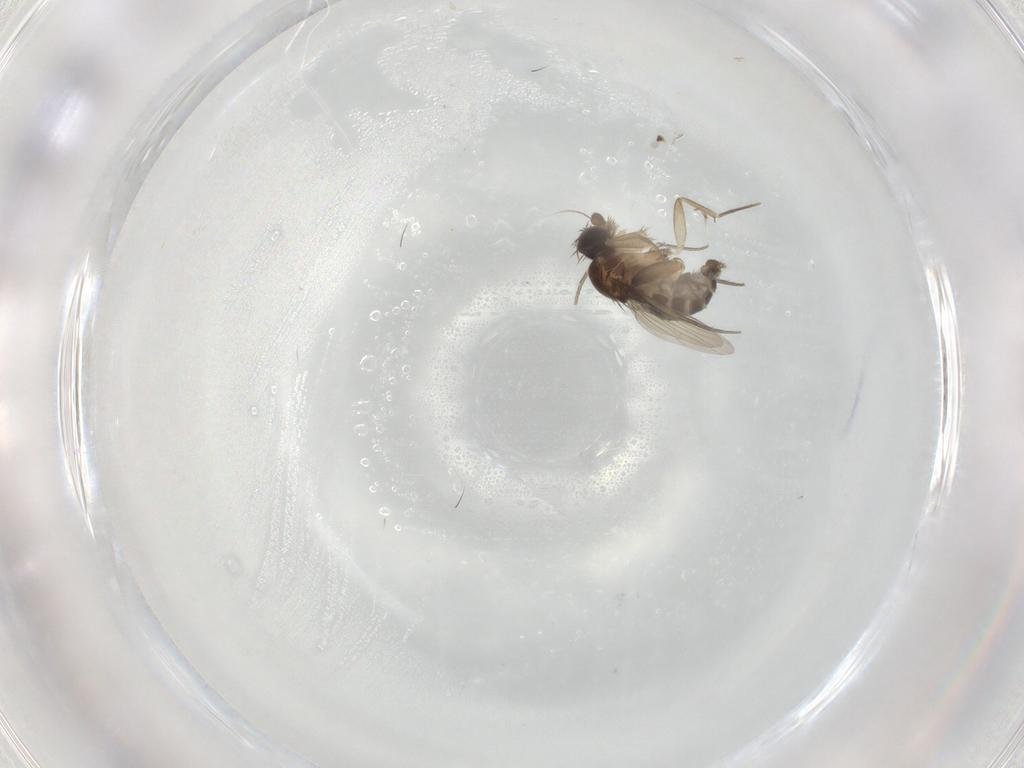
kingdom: Animalia
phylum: Arthropoda
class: Insecta
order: Diptera
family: Phoridae
